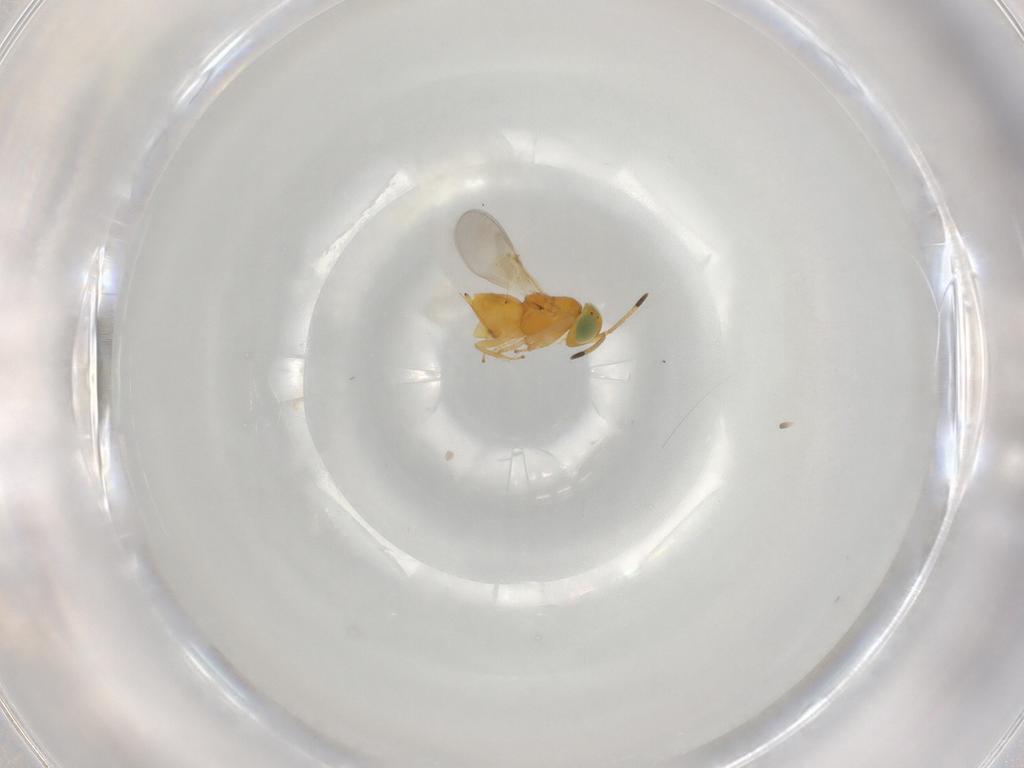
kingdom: Animalia
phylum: Arthropoda
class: Insecta
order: Hymenoptera
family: Encyrtidae
